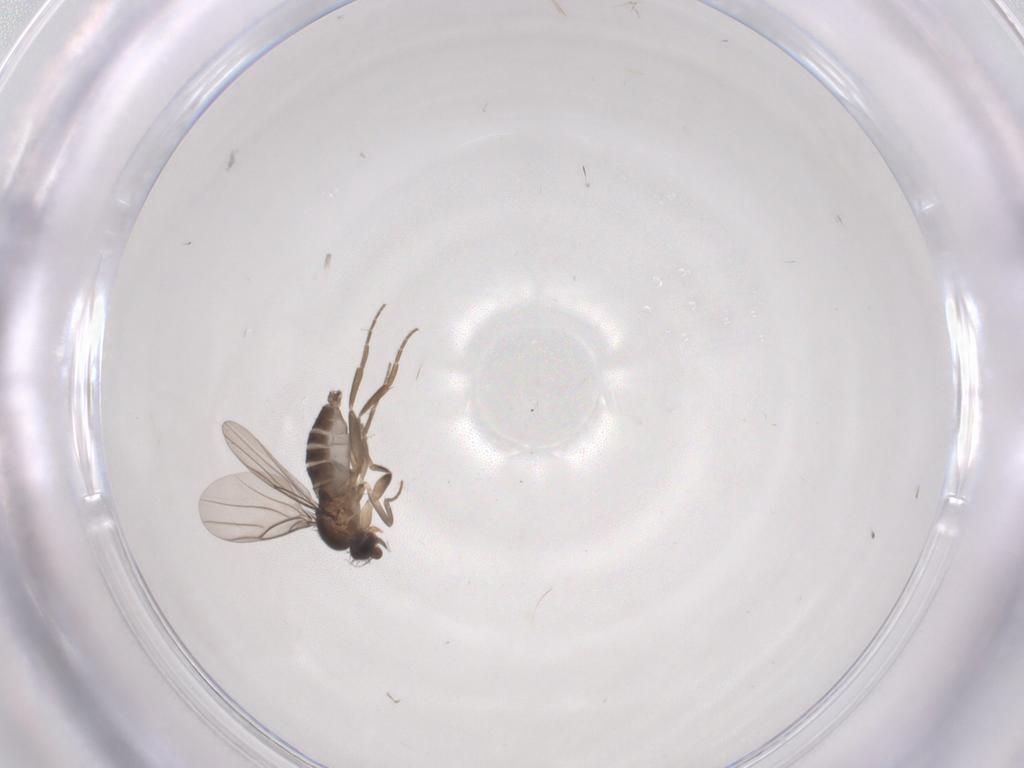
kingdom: Animalia
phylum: Arthropoda
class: Insecta
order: Diptera
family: Phoridae
